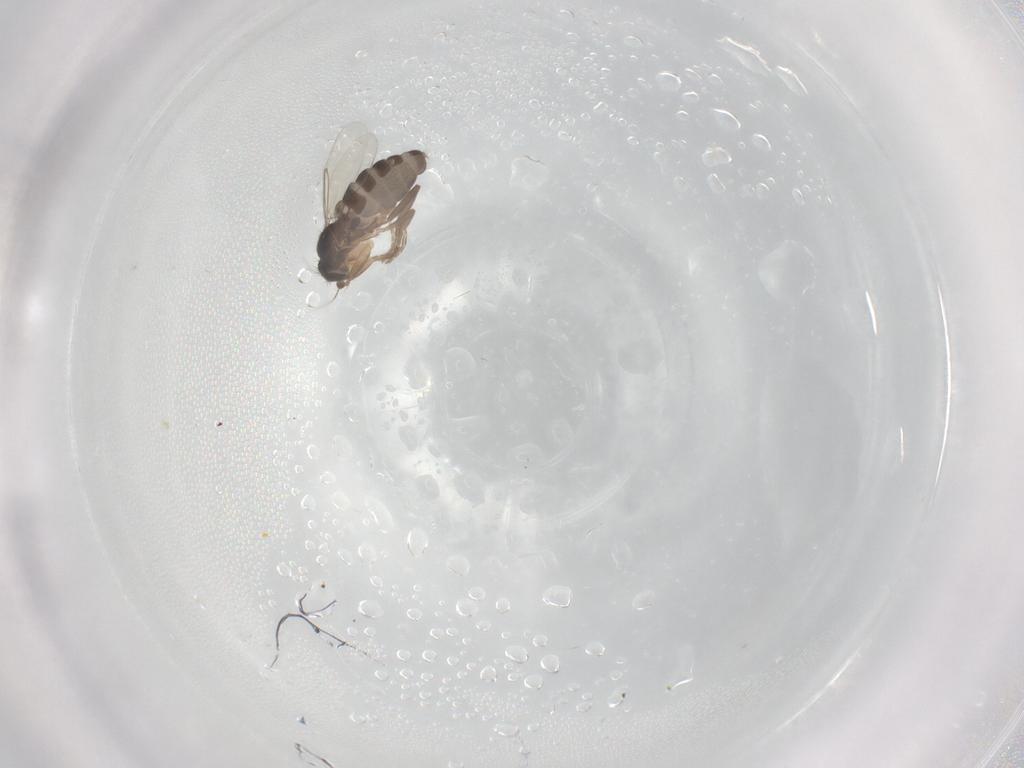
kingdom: Animalia
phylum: Arthropoda
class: Insecta
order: Diptera
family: Phoridae
